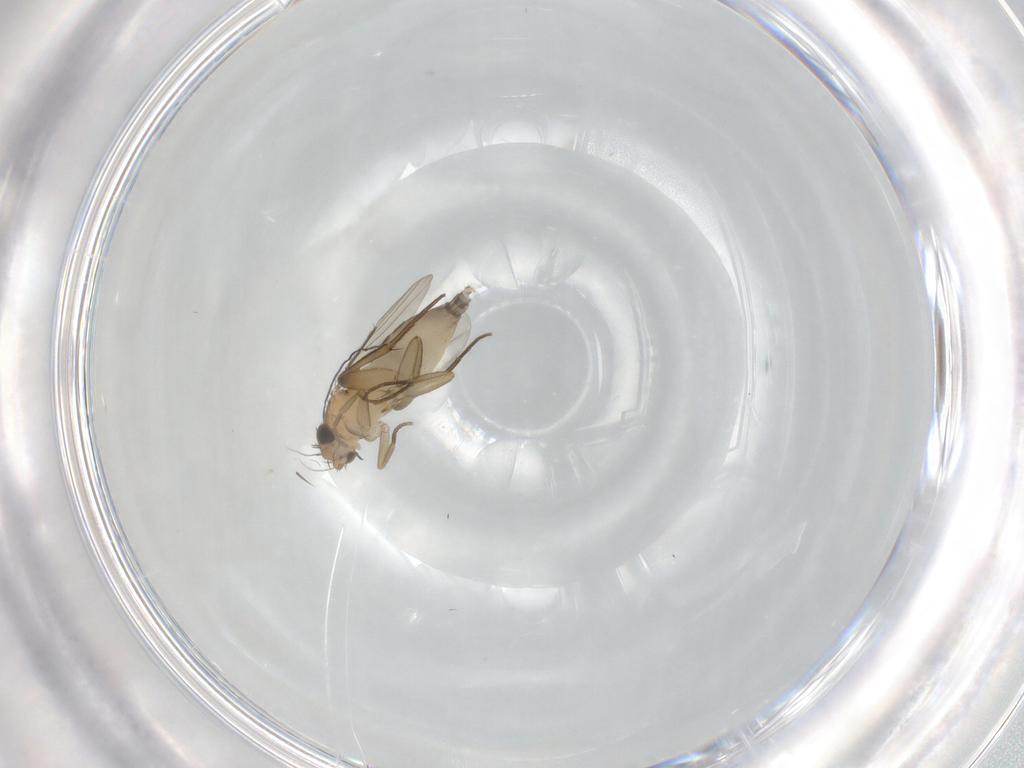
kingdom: Animalia
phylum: Arthropoda
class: Insecta
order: Diptera
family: Phoridae
